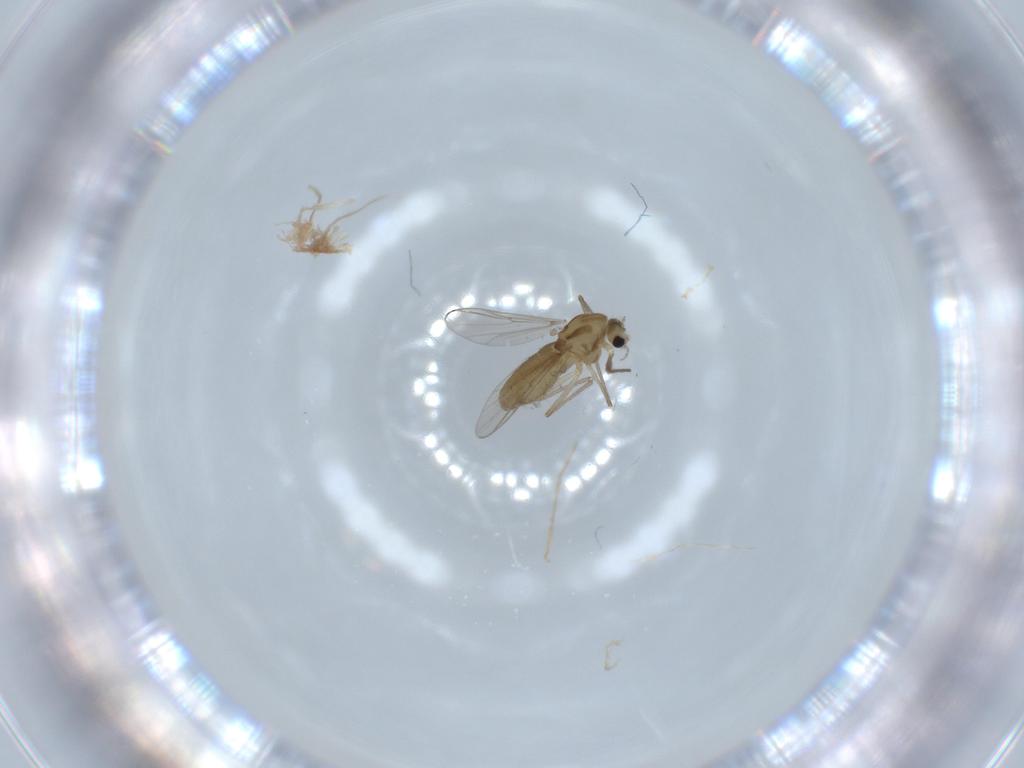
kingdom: Animalia
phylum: Arthropoda
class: Insecta
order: Diptera
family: Chironomidae
